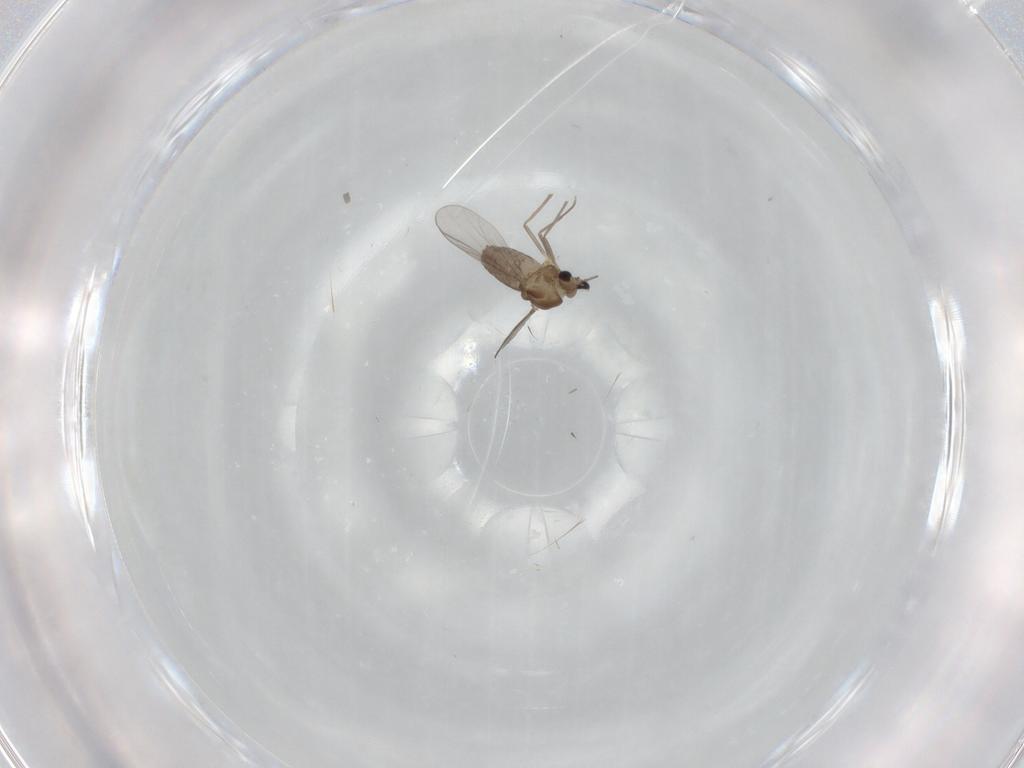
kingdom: Animalia
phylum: Arthropoda
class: Insecta
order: Diptera
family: Chironomidae
